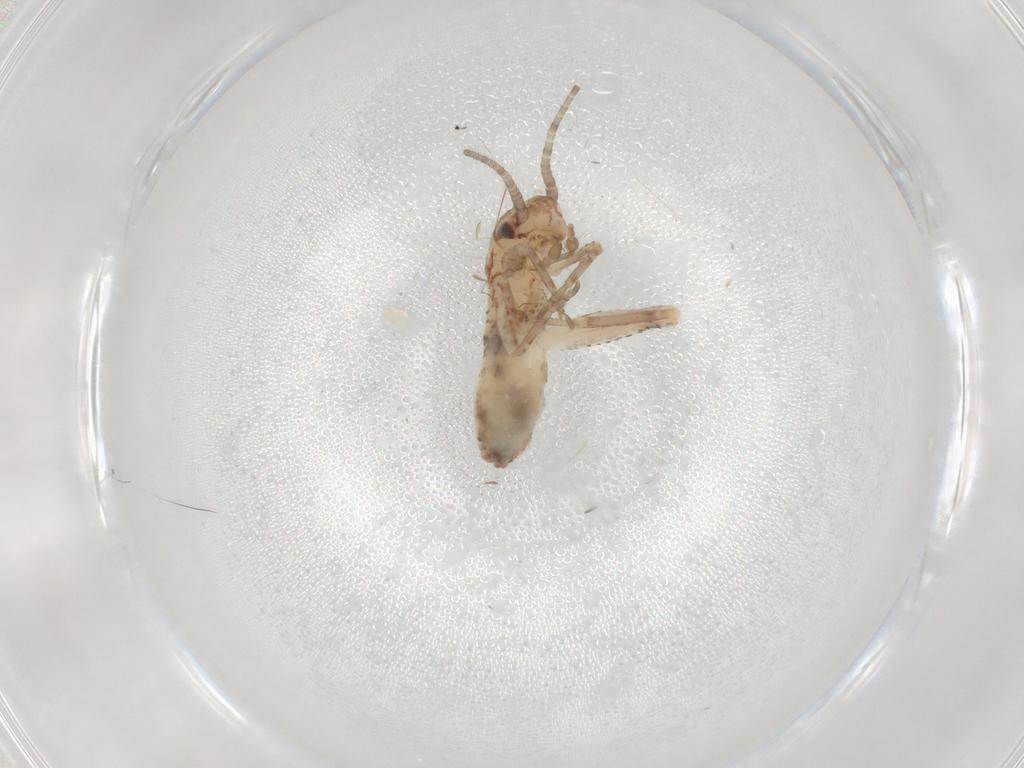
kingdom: Animalia
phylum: Arthropoda
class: Insecta
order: Orthoptera
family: Mogoplistidae
